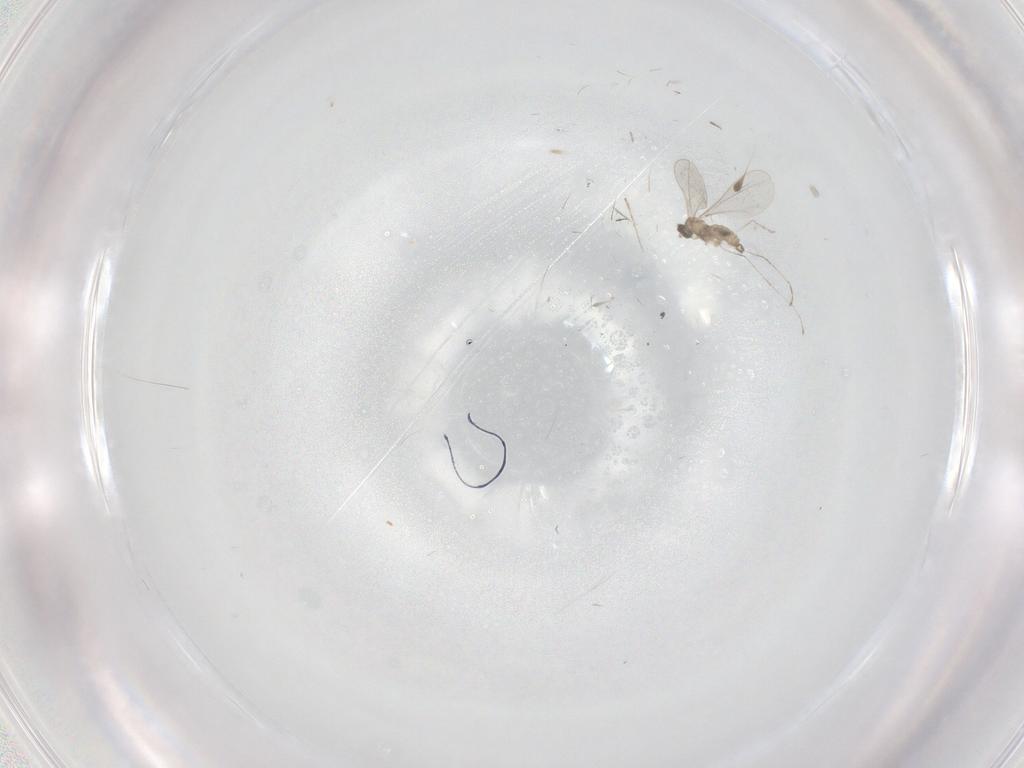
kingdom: Animalia
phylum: Arthropoda
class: Insecta
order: Diptera
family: Phoridae
